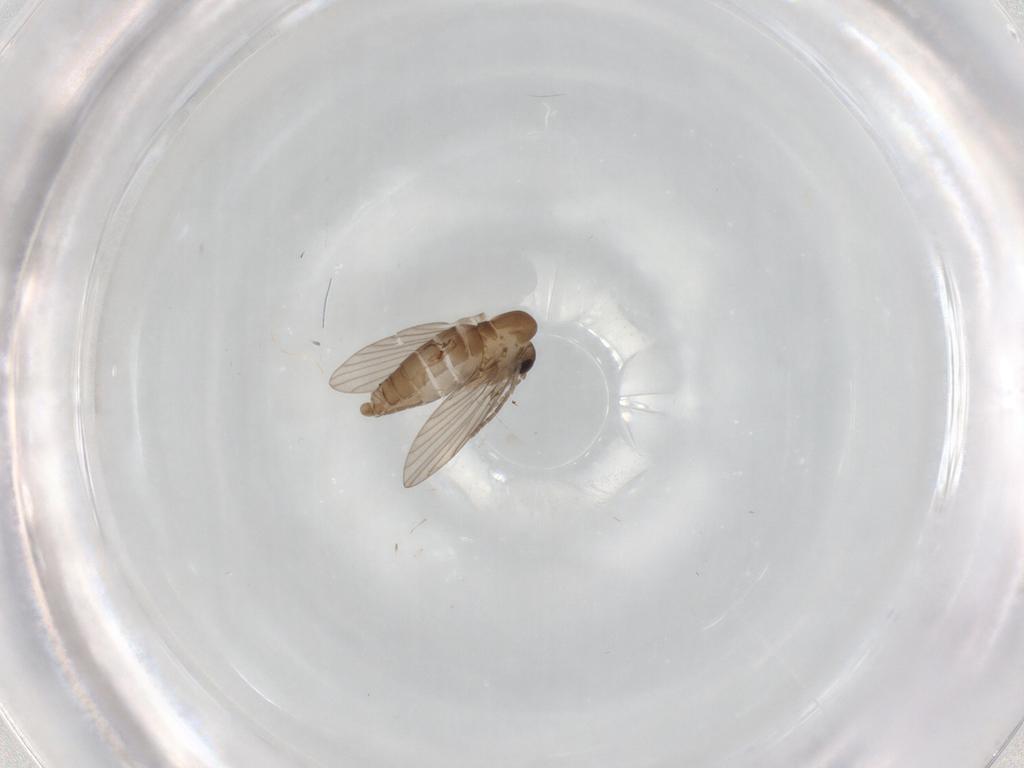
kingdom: Animalia
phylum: Arthropoda
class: Insecta
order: Diptera
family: Psychodidae
